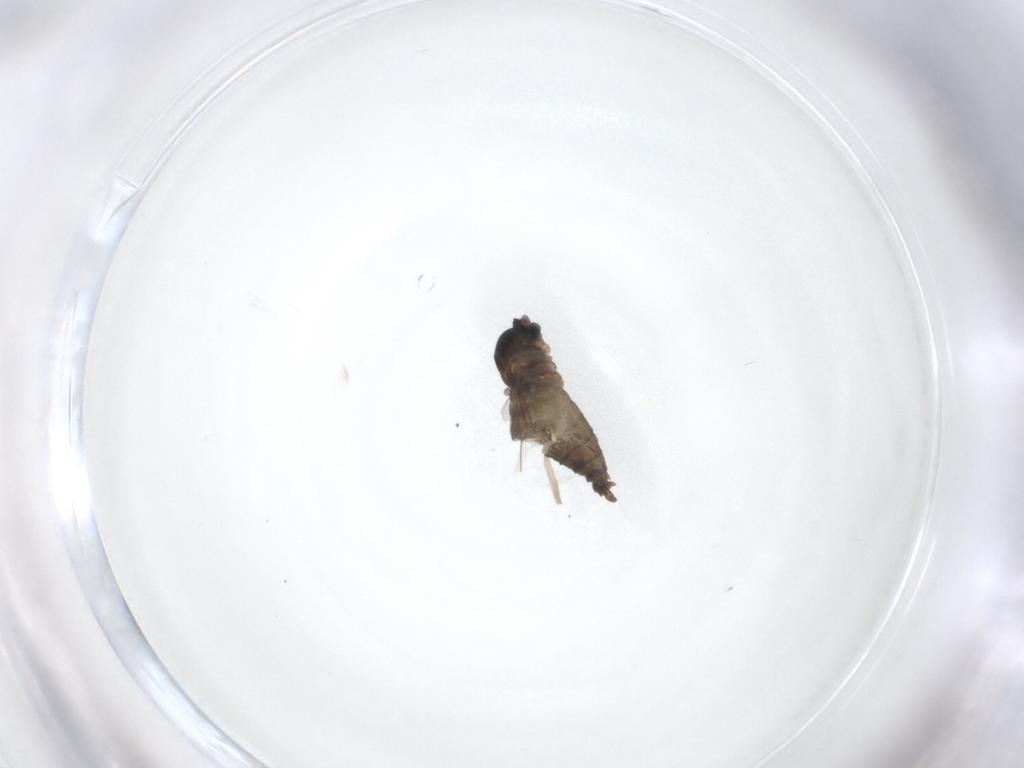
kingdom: Animalia
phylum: Arthropoda
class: Insecta
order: Diptera
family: Cecidomyiidae
